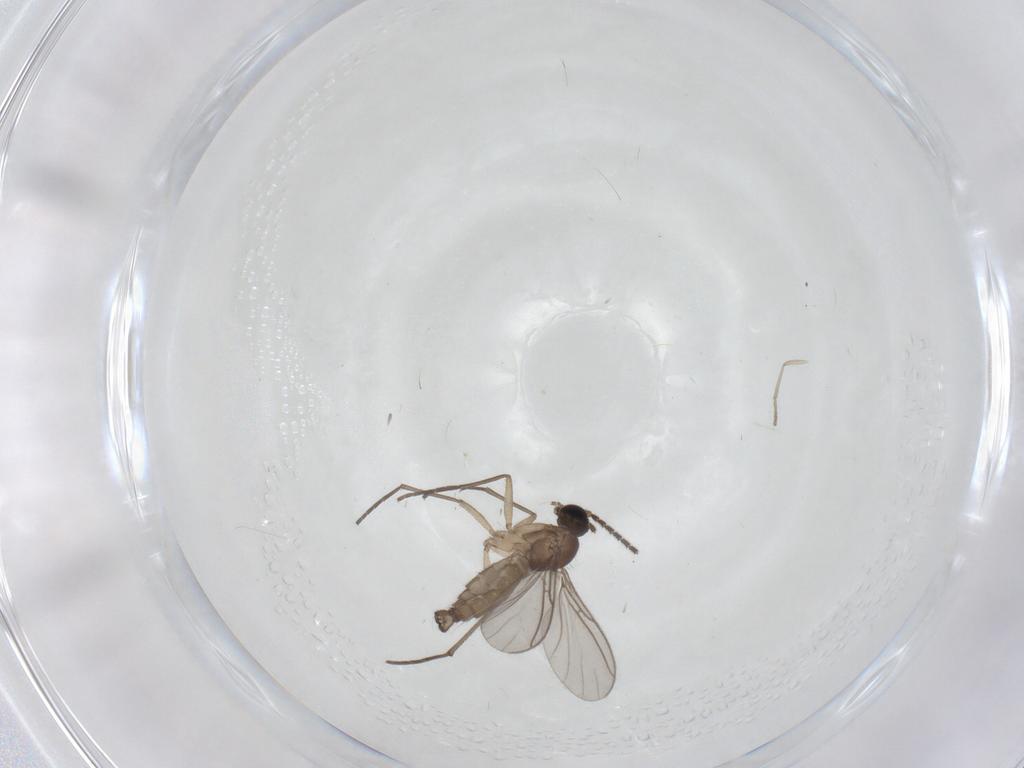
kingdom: Animalia
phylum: Arthropoda
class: Insecta
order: Diptera
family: Sciaridae
